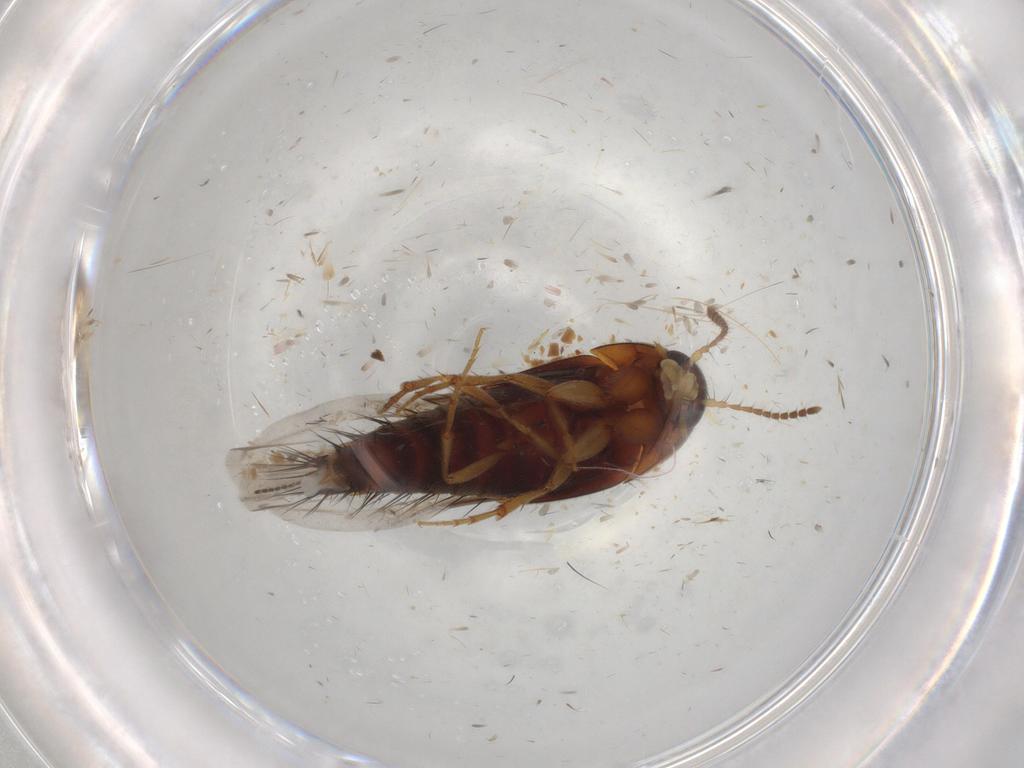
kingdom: Animalia
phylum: Arthropoda
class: Insecta
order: Coleoptera
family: Staphylinidae
